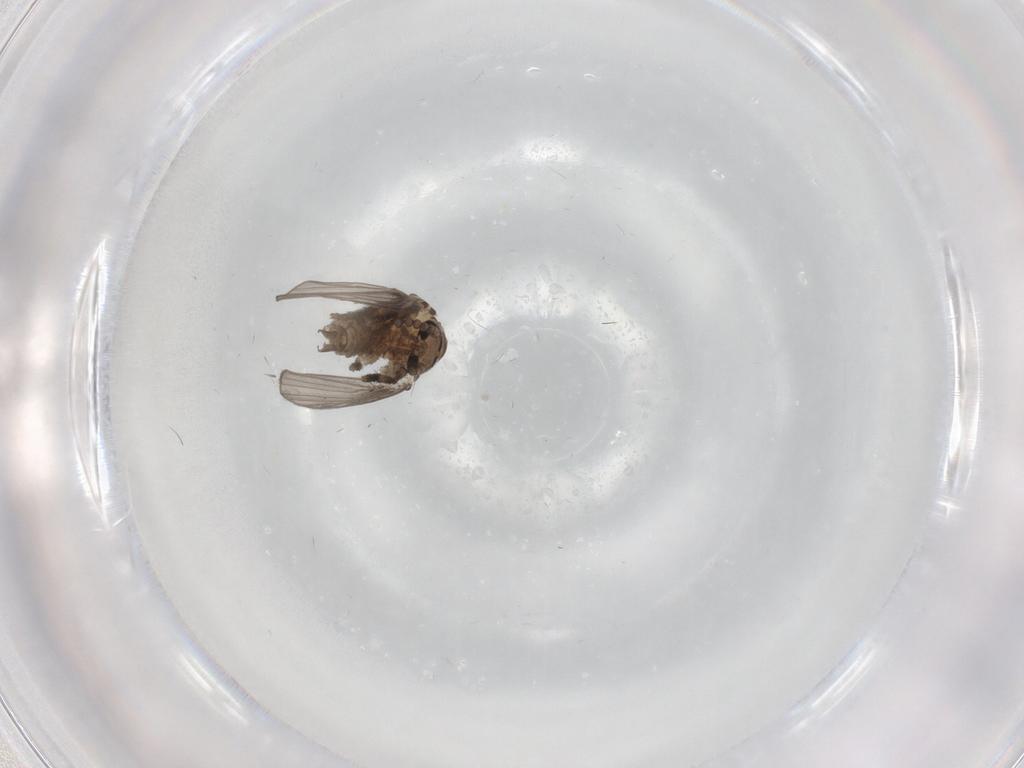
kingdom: Animalia
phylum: Arthropoda
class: Insecta
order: Diptera
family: Psychodidae
